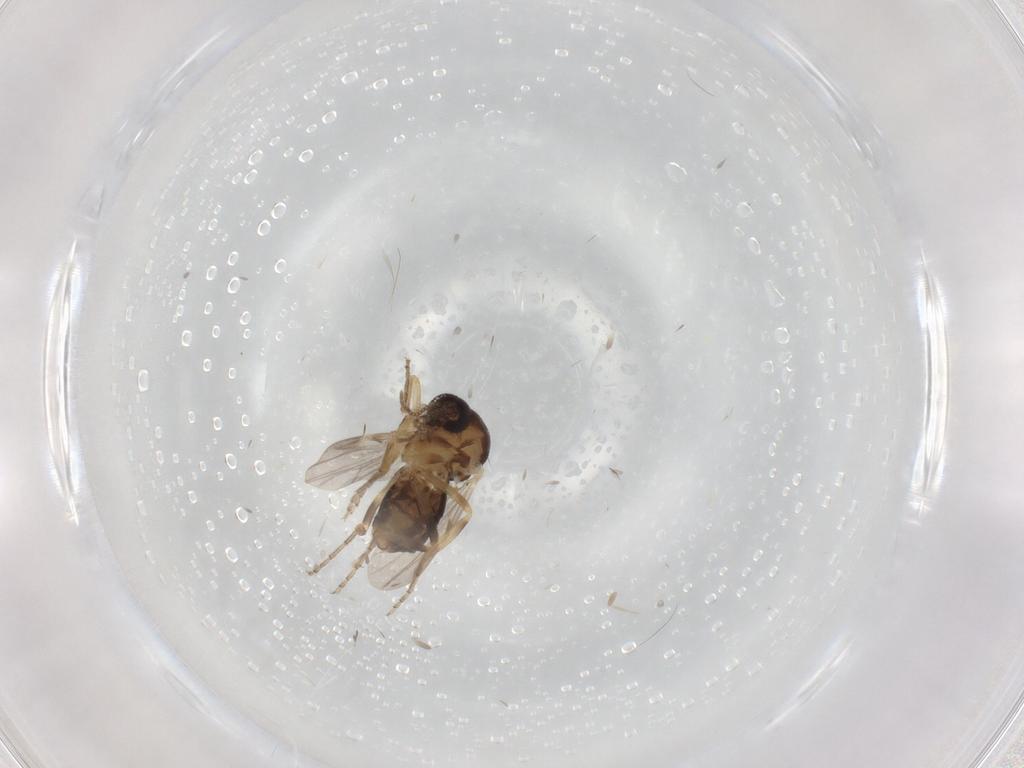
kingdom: Animalia
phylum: Arthropoda
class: Insecta
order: Diptera
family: Ceratopogonidae
